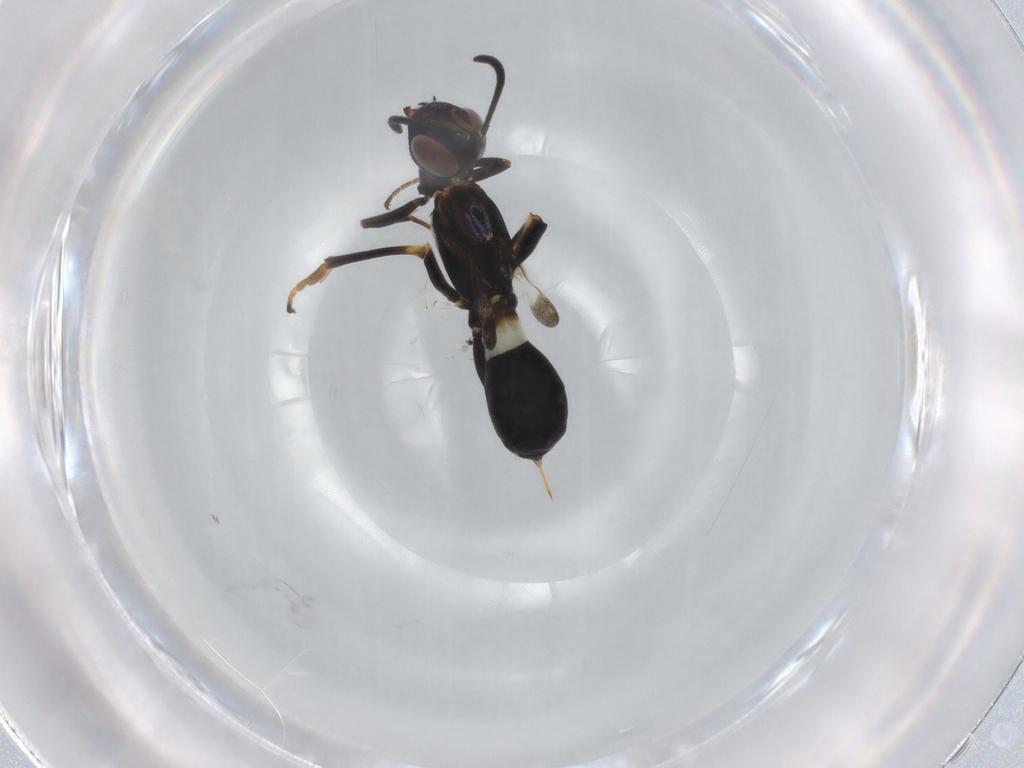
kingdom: Animalia
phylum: Arthropoda
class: Insecta
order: Hymenoptera
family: Eupelmidae
